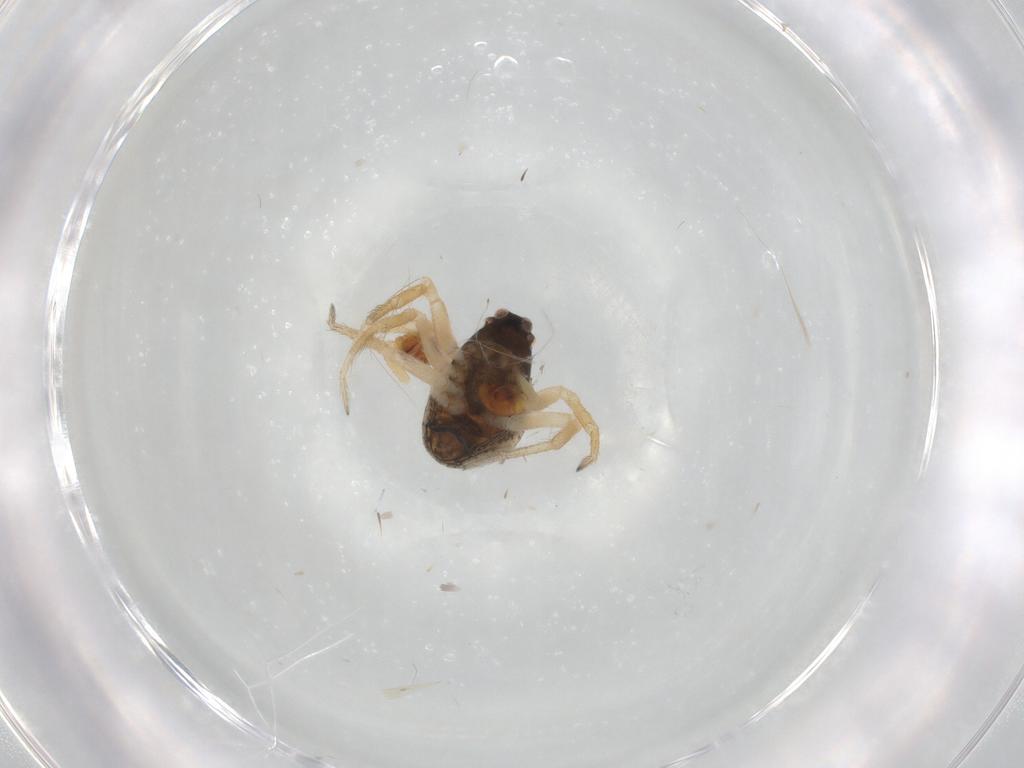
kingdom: Animalia
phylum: Arthropoda
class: Arachnida
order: Araneae
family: Theridiidae
